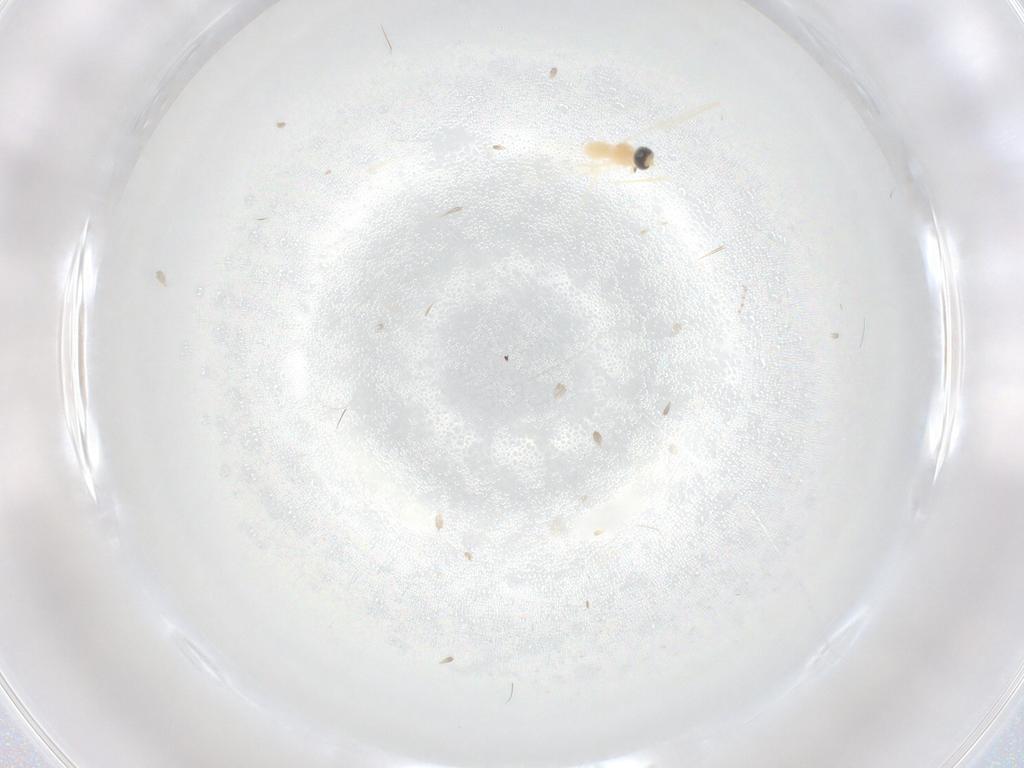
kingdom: Animalia
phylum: Arthropoda
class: Insecta
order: Diptera
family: Cecidomyiidae
